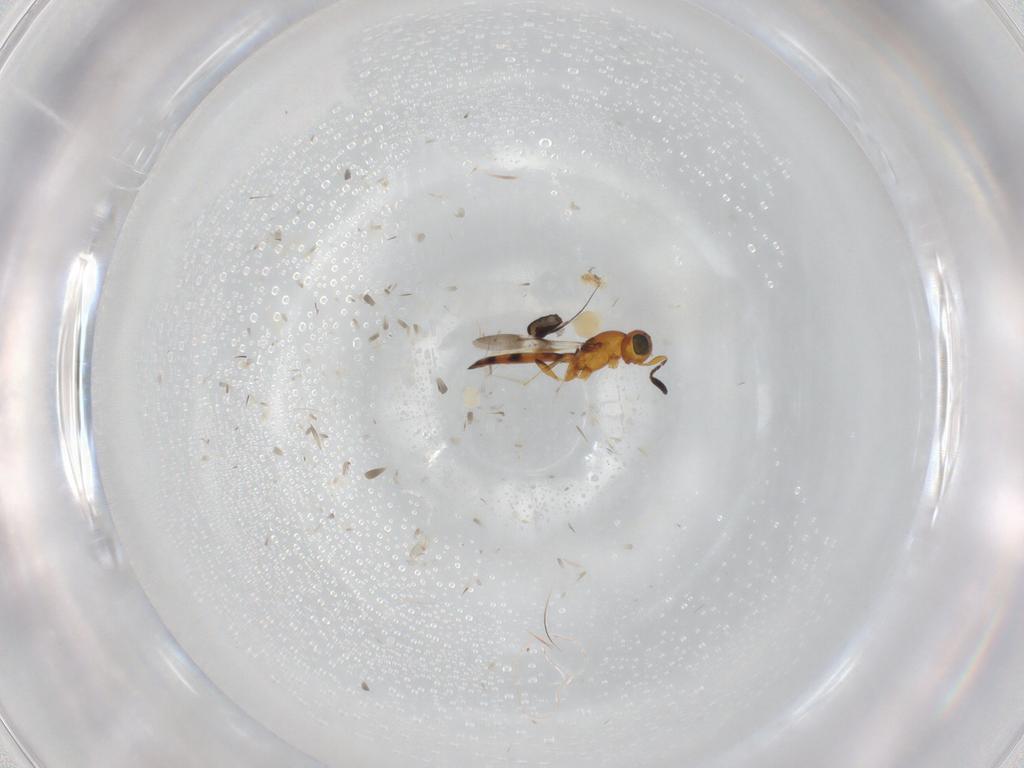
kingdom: Animalia
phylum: Arthropoda
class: Insecta
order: Hymenoptera
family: Scelionidae
